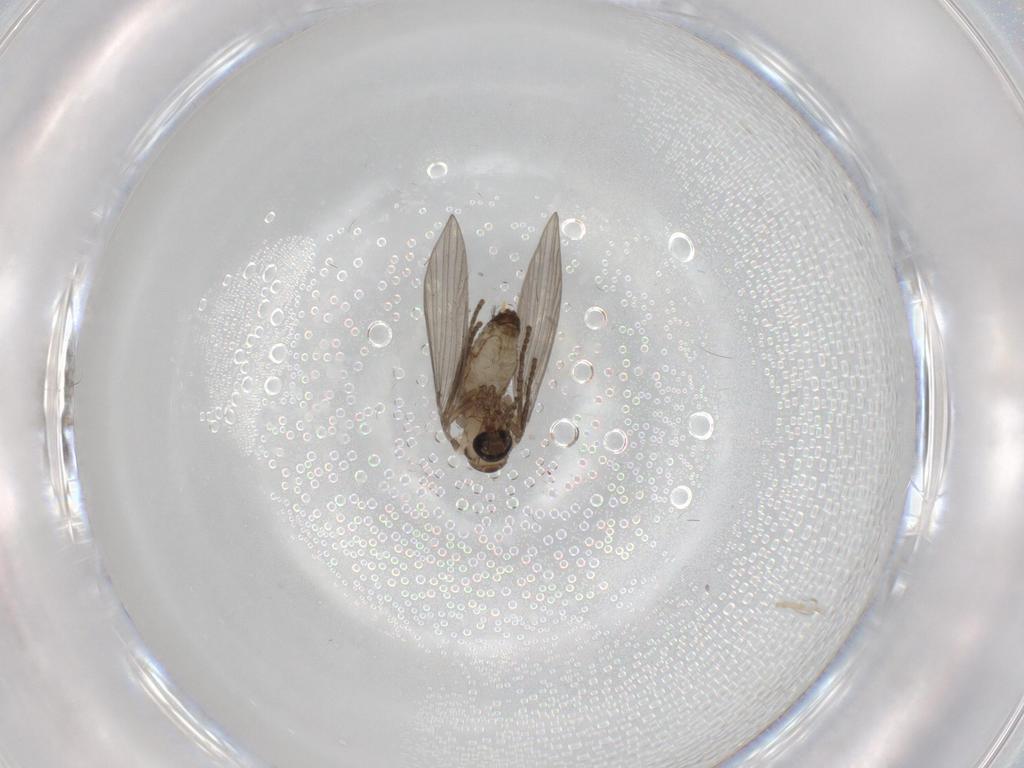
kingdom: Animalia
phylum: Arthropoda
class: Insecta
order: Diptera
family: Psychodidae
